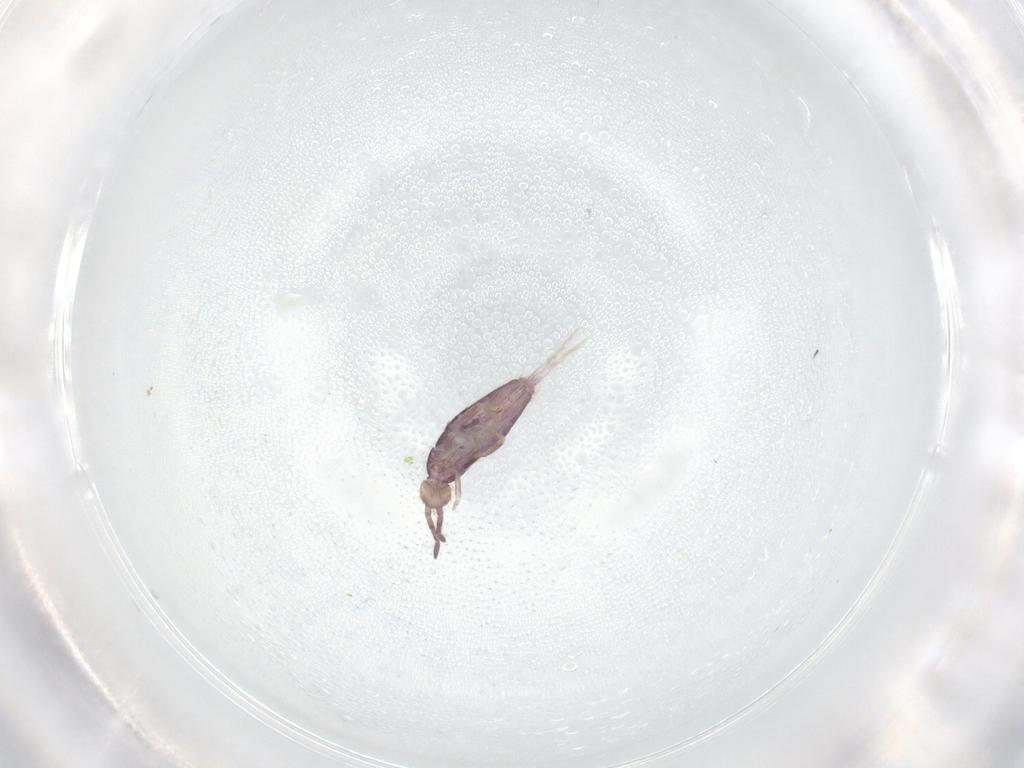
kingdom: Animalia
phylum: Arthropoda
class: Collembola
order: Entomobryomorpha
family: Entomobryidae
